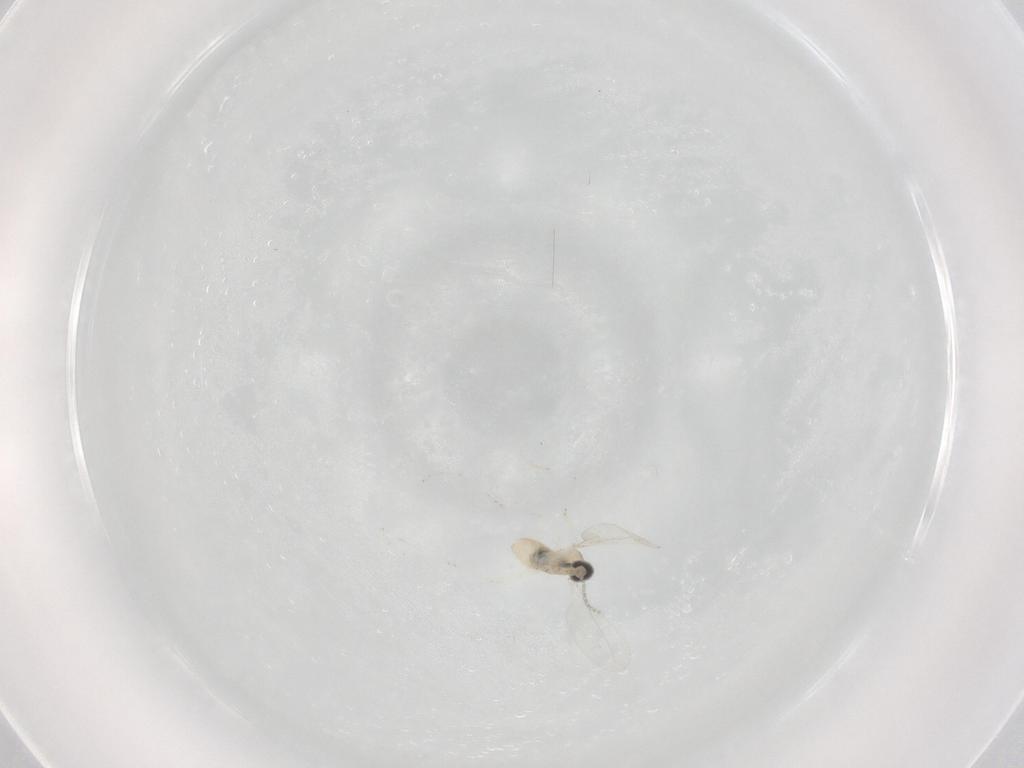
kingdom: Animalia
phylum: Arthropoda
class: Insecta
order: Diptera
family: Cecidomyiidae
